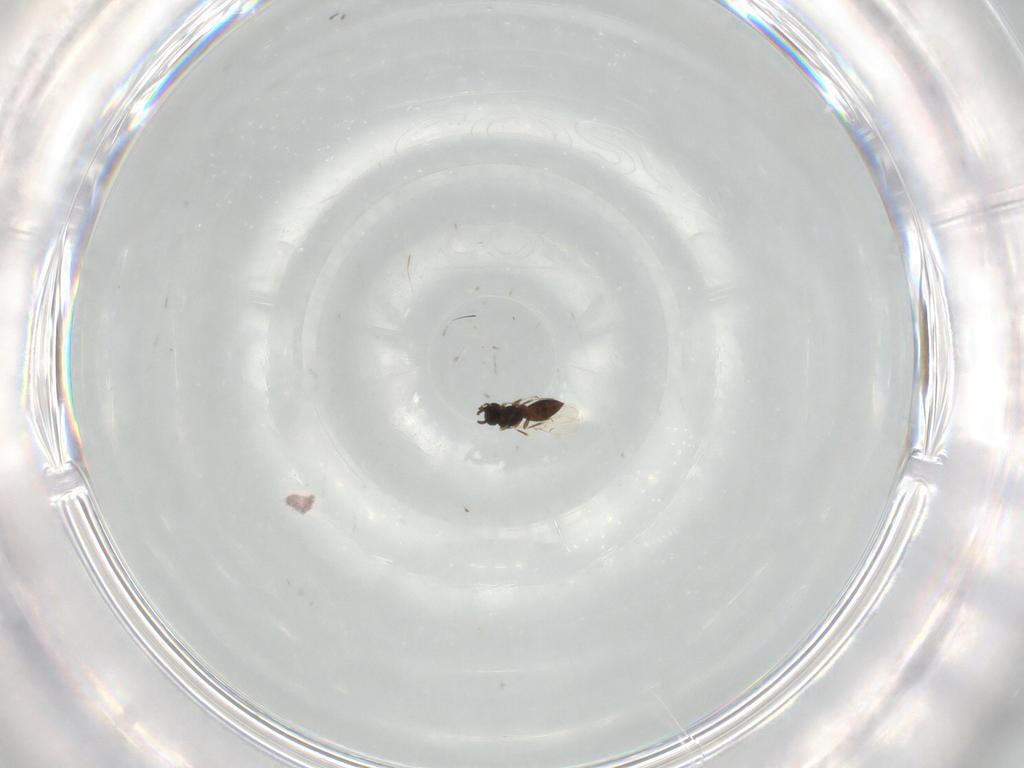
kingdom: Animalia
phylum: Arthropoda
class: Insecta
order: Hymenoptera
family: Scelionidae
